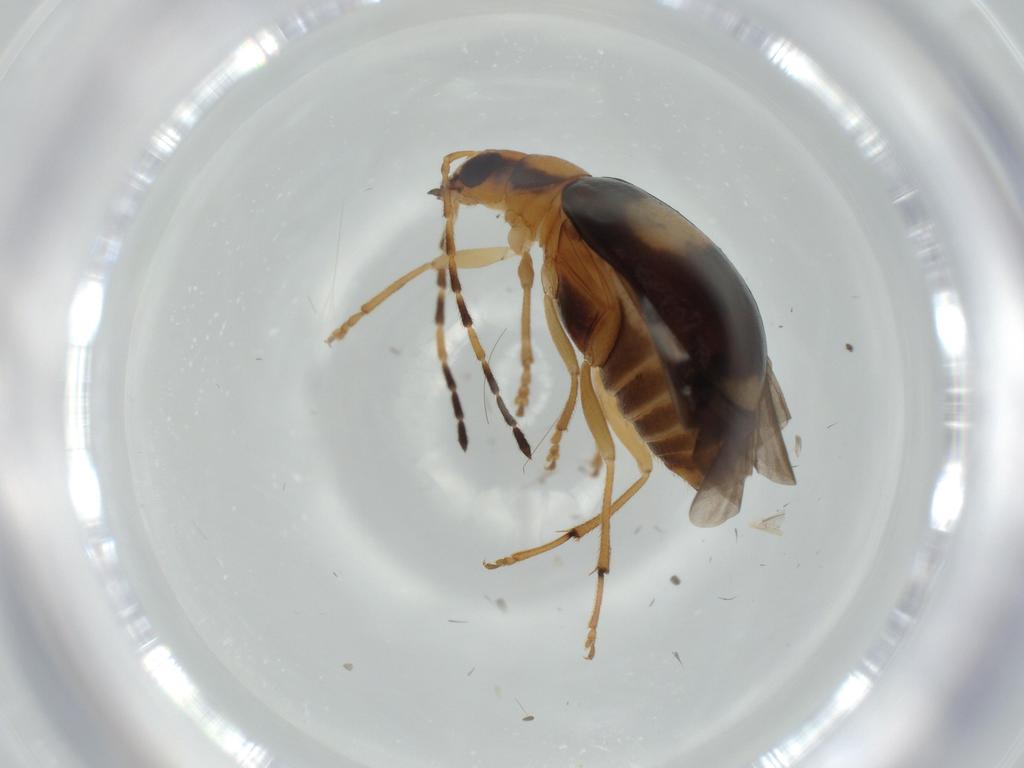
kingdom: Animalia
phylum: Arthropoda
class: Insecta
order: Coleoptera
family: Chrysomelidae
